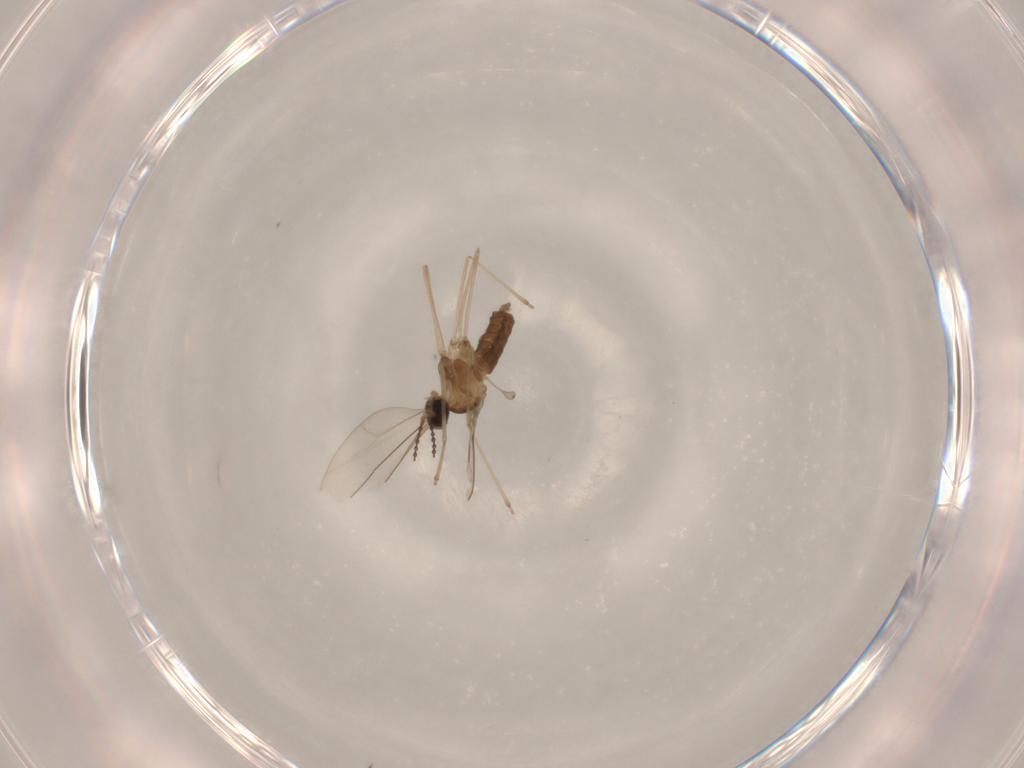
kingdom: Animalia
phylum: Arthropoda
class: Insecta
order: Diptera
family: Cecidomyiidae
